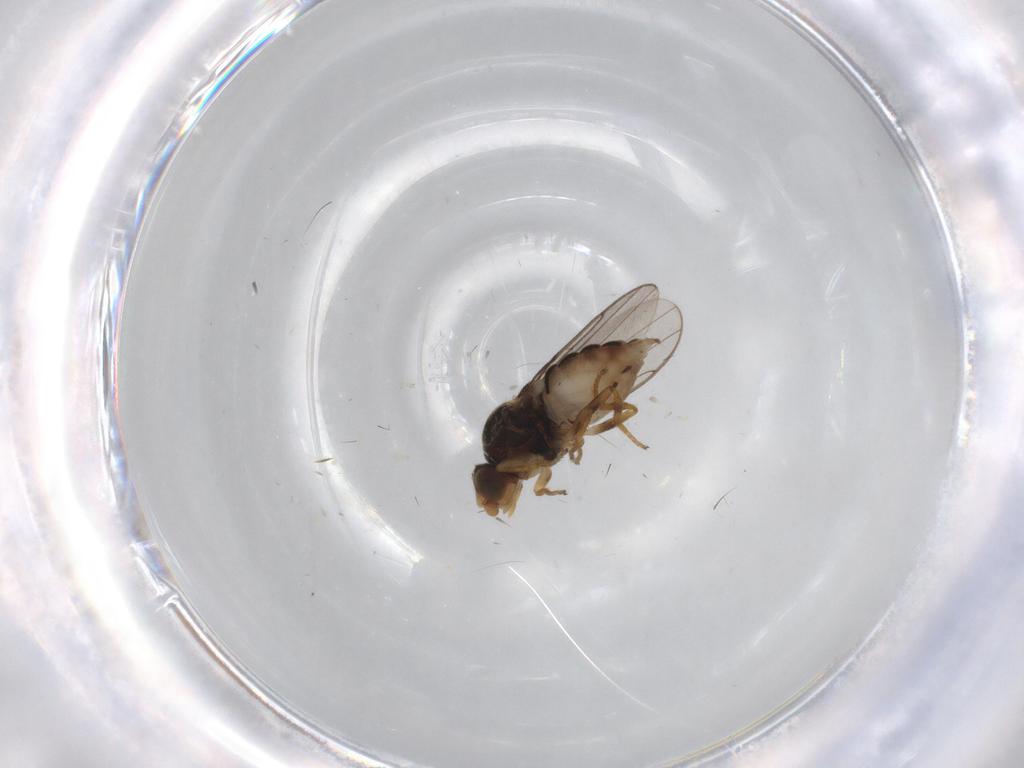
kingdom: Animalia
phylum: Arthropoda
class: Insecta
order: Diptera
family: Chloropidae
